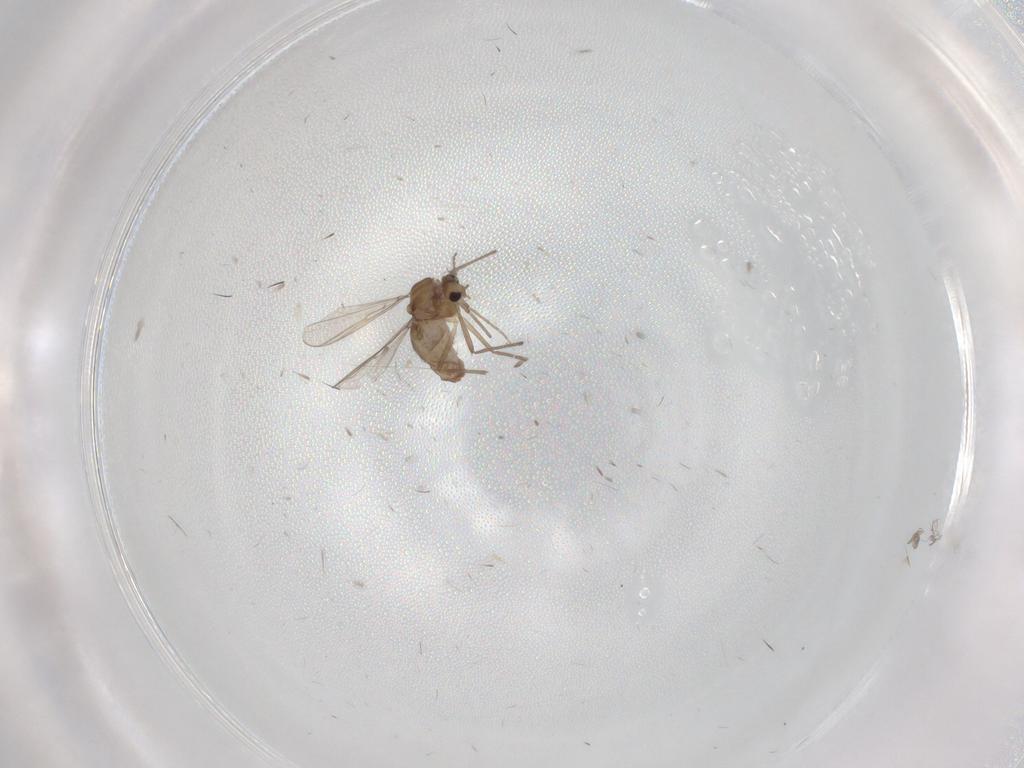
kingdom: Animalia
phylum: Arthropoda
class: Insecta
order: Diptera
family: Chironomidae
